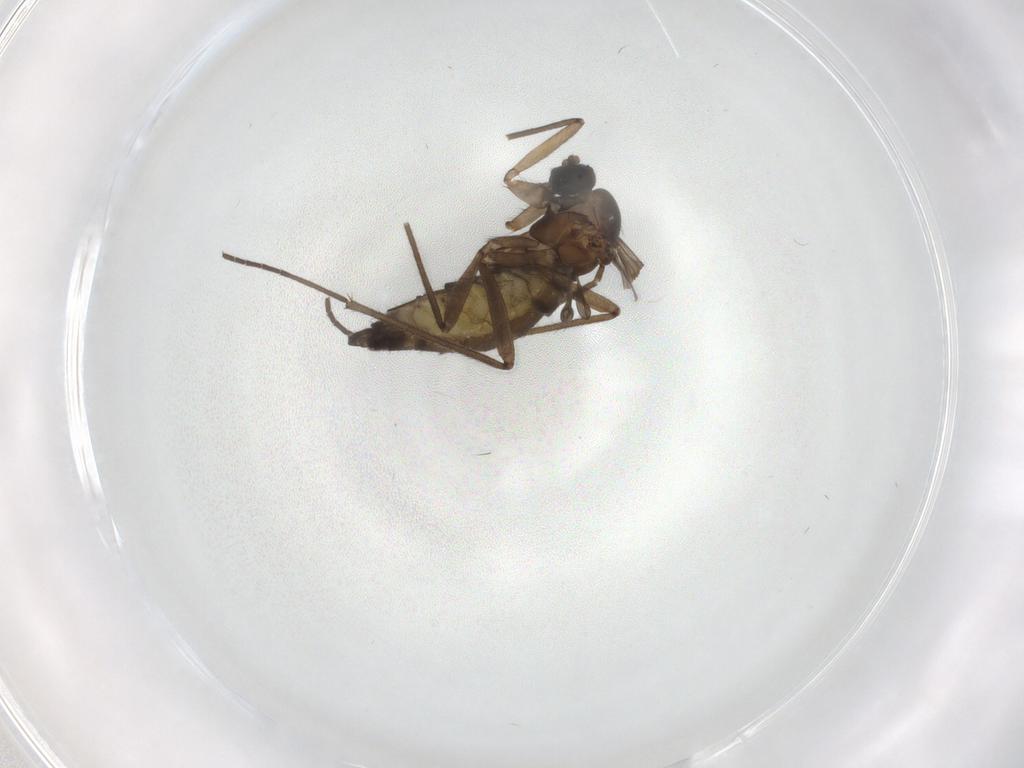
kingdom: Animalia
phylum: Arthropoda
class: Insecta
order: Diptera
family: Sciaridae
